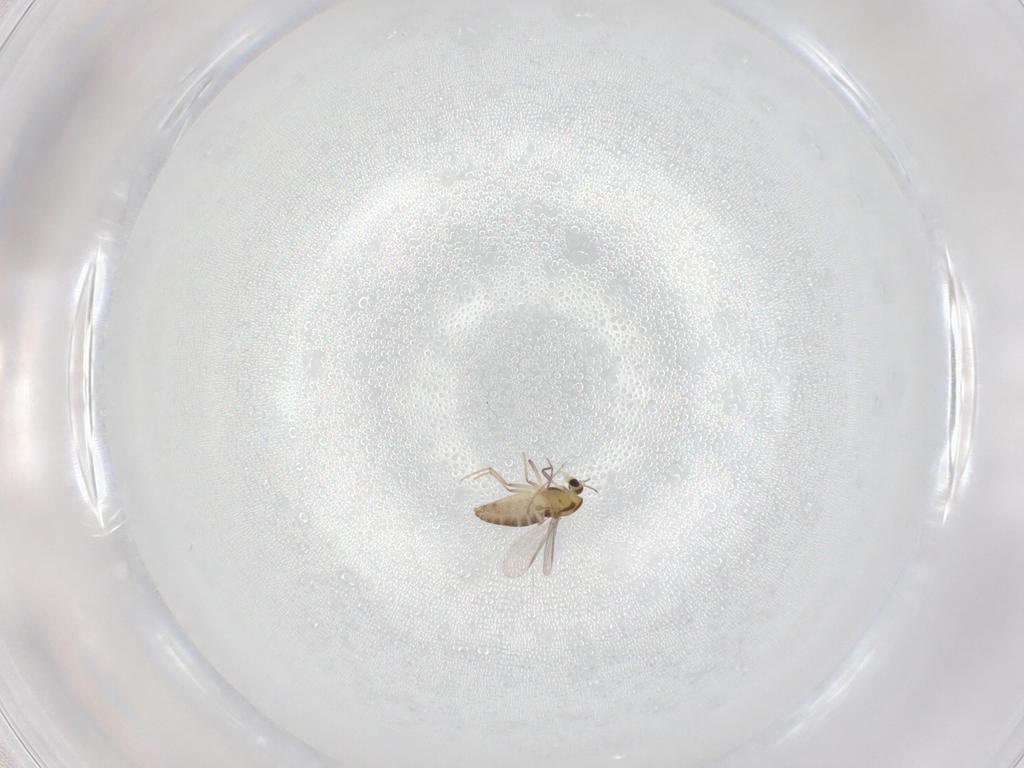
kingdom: Animalia
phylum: Arthropoda
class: Insecta
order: Diptera
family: Chironomidae
